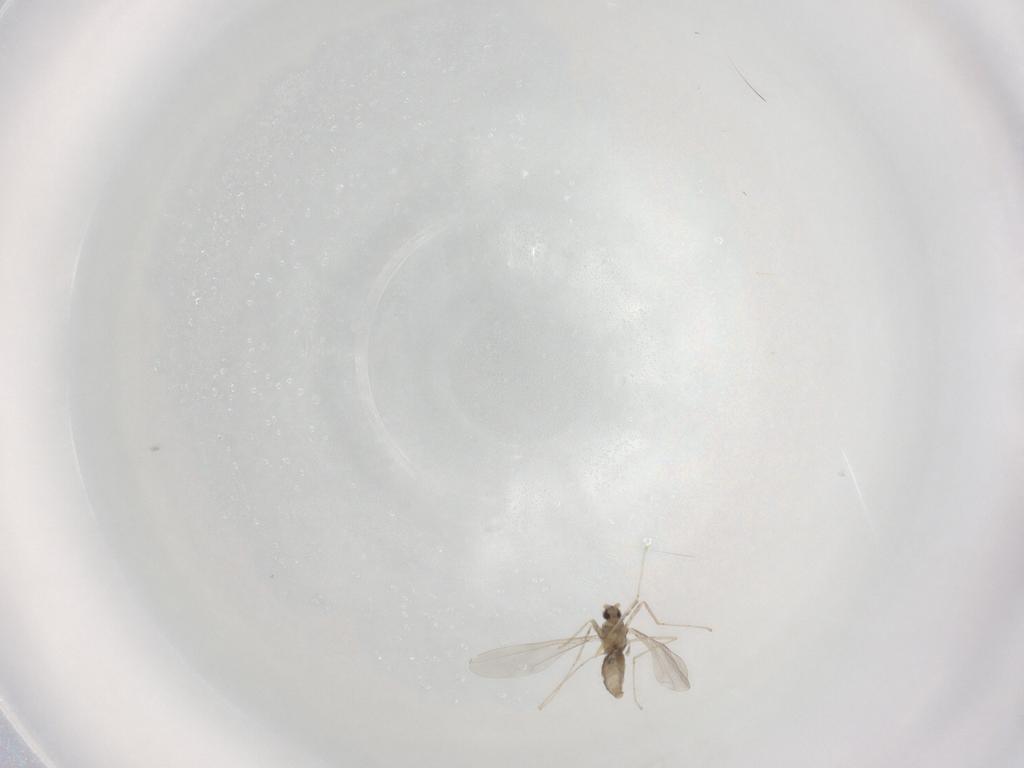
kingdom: Animalia
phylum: Arthropoda
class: Insecta
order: Diptera
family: Cecidomyiidae
